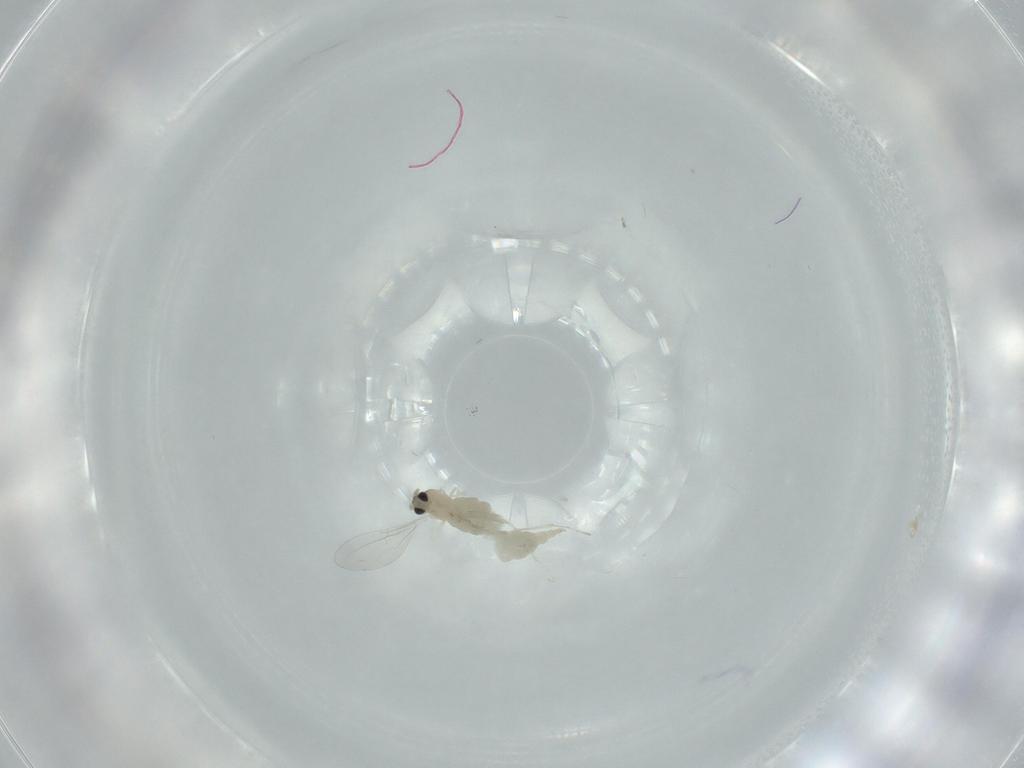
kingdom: Animalia
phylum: Arthropoda
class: Insecta
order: Diptera
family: Cecidomyiidae
